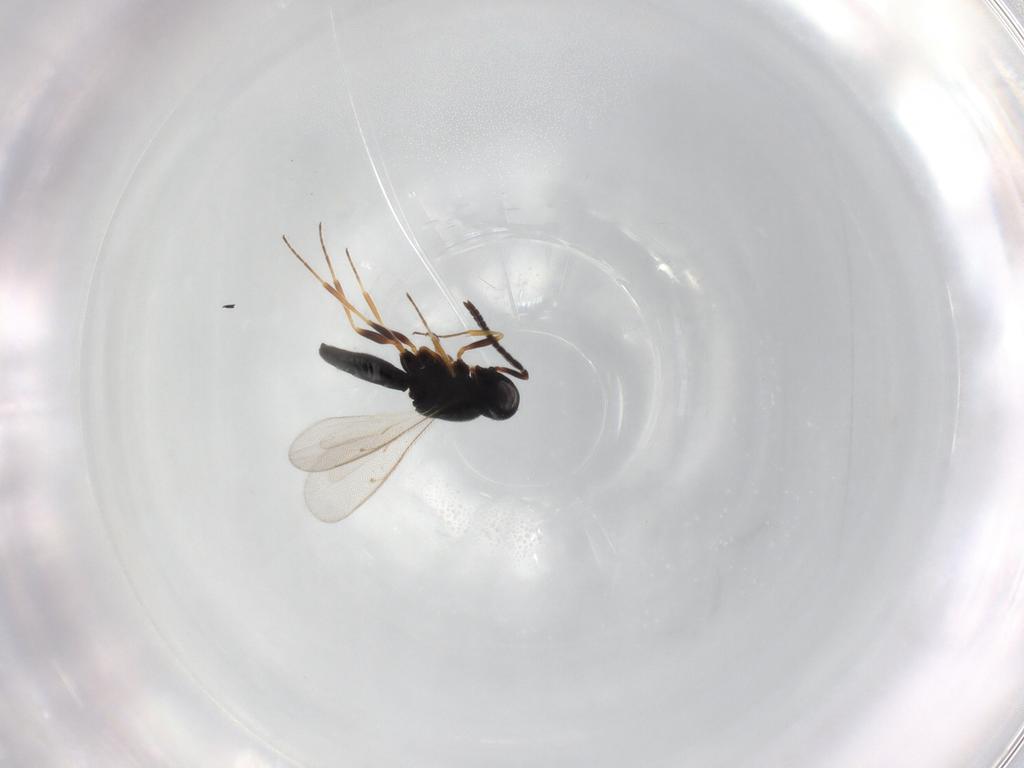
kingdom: Animalia
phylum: Arthropoda
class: Insecta
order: Hymenoptera
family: Scelionidae
